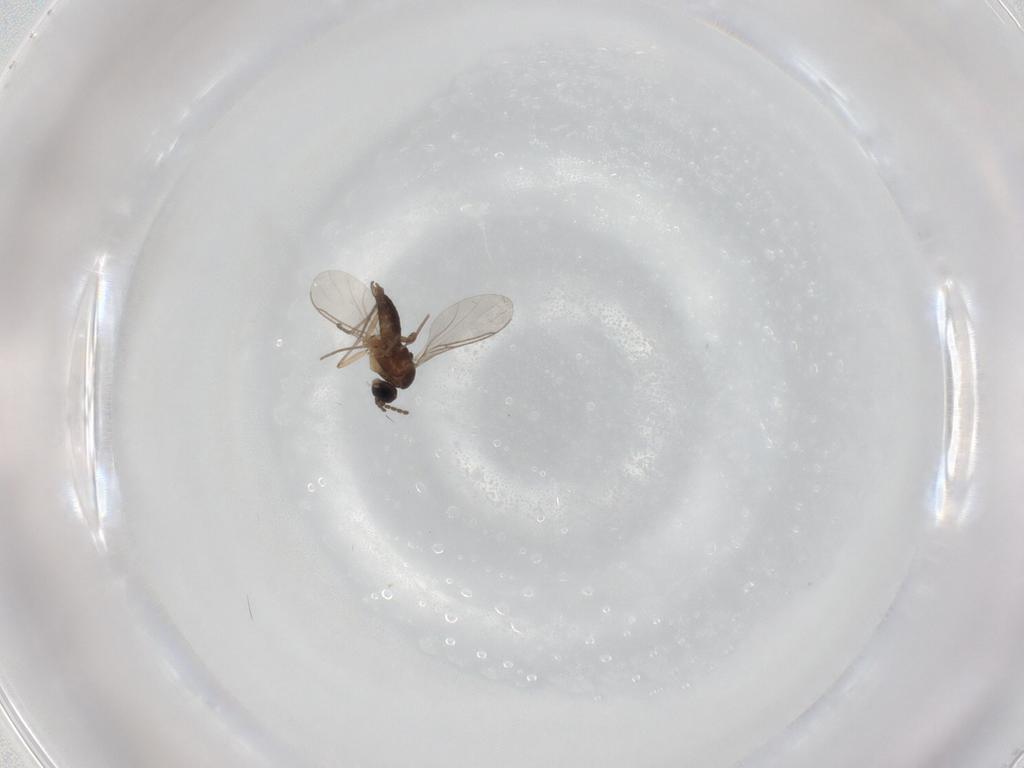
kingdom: Animalia
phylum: Arthropoda
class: Insecta
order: Diptera
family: Sciaridae
